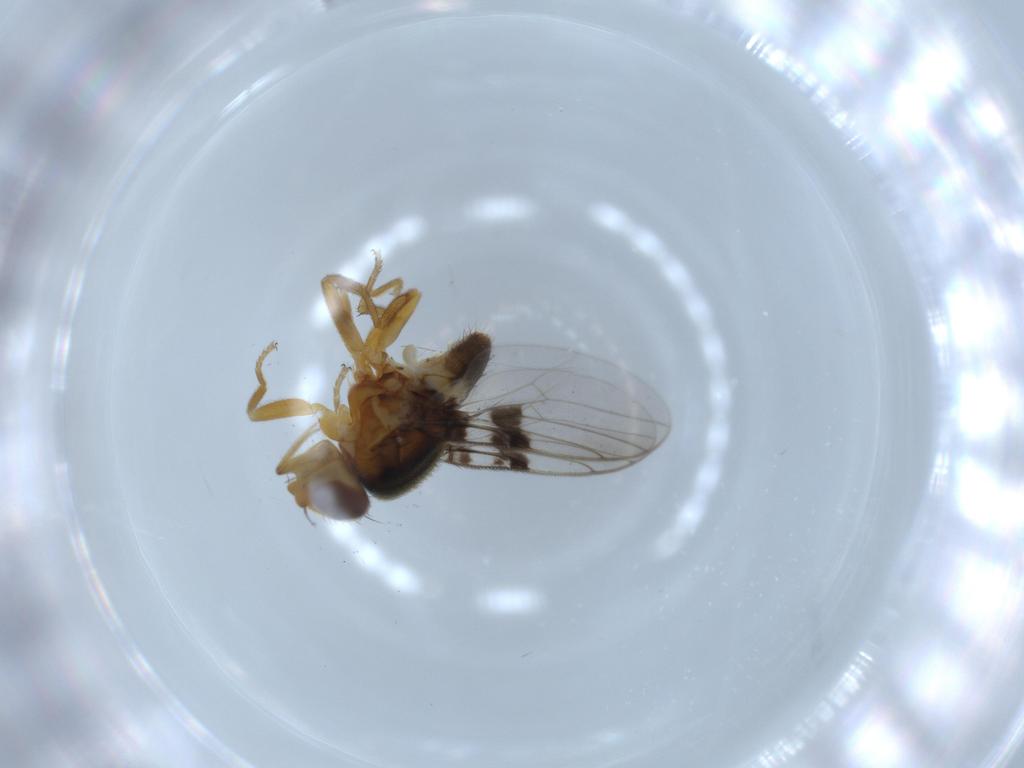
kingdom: Animalia
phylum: Arthropoda
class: Insecta
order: Diptera
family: Chloropidae
